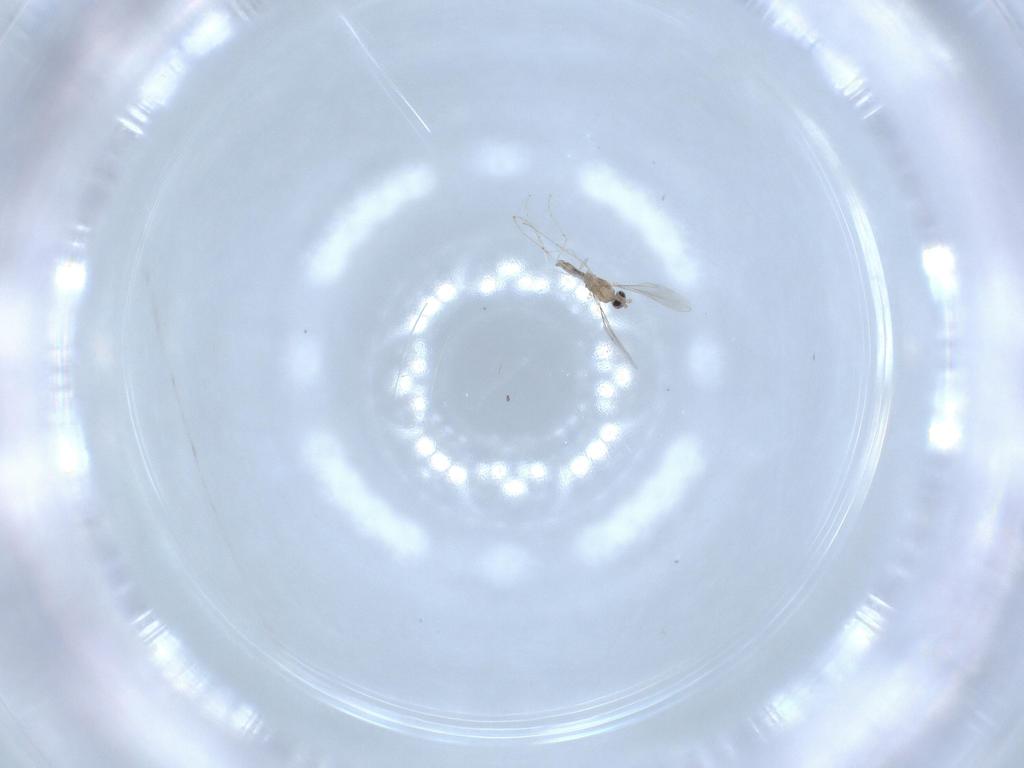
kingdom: Animalia
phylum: Arthropoda
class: Insecta
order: Diptera
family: Cecidomyiidae
